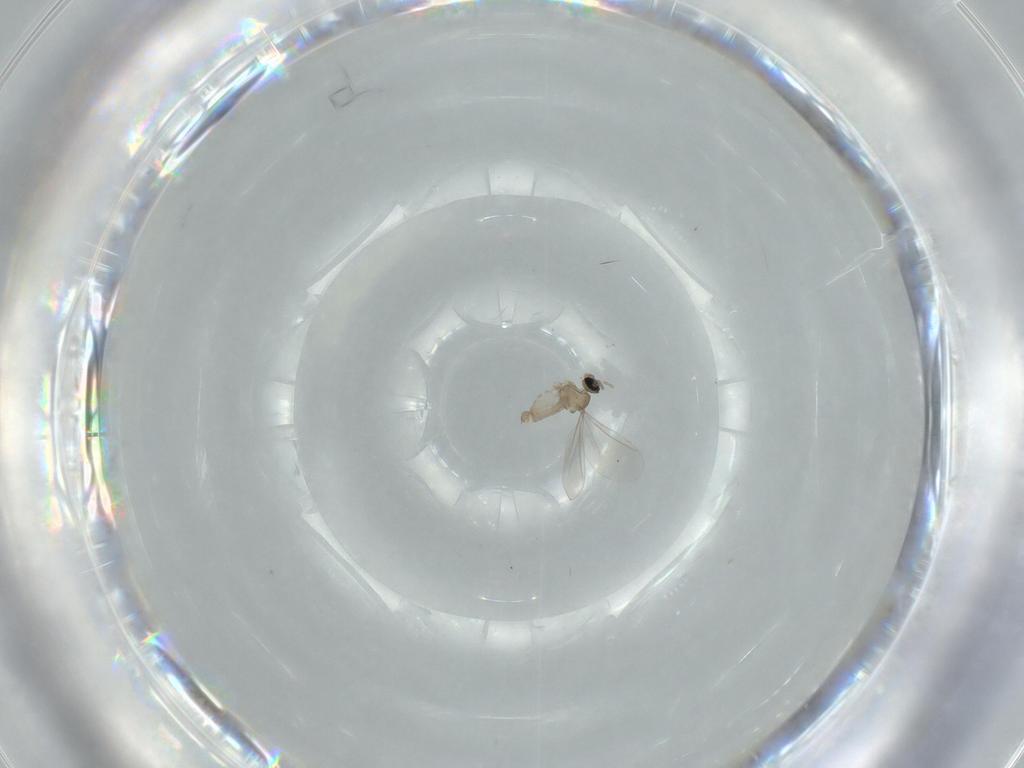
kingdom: Animalia
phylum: Arthropoda
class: Insecta
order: Diptera
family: Cecidomyiidae
